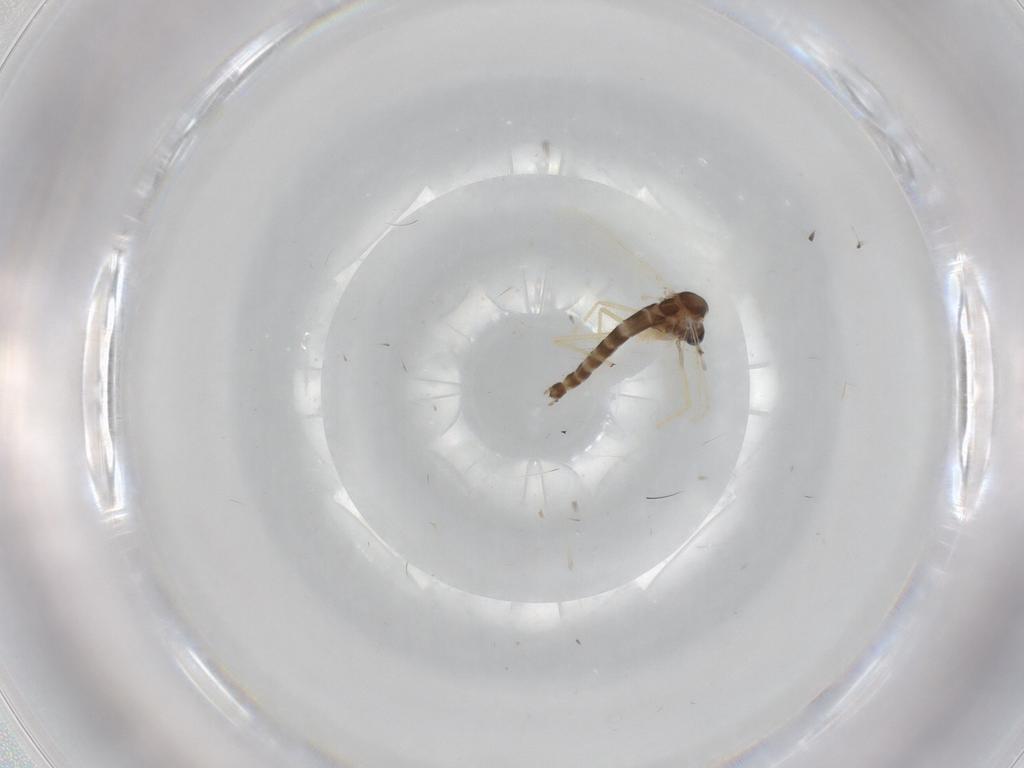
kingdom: Animalia
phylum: Arthropoda
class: Insecta
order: Diptera
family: Chironomidae
